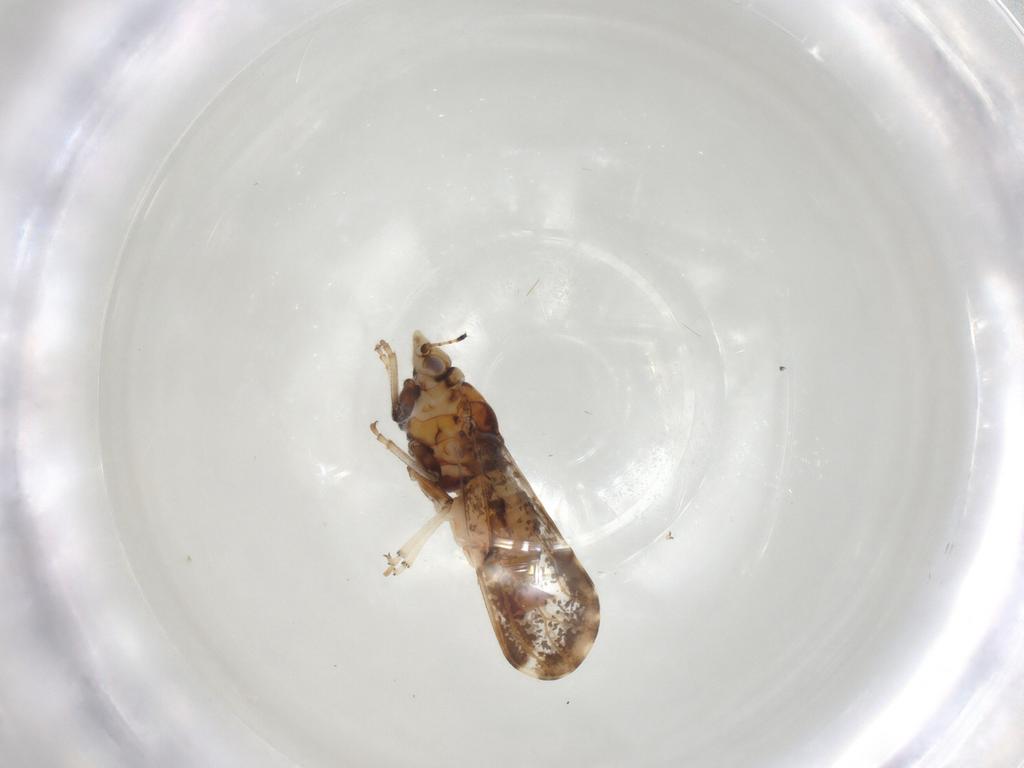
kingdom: Animalia
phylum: Arthropoda
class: Insecta
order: Hemiptera
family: Psyllidae
